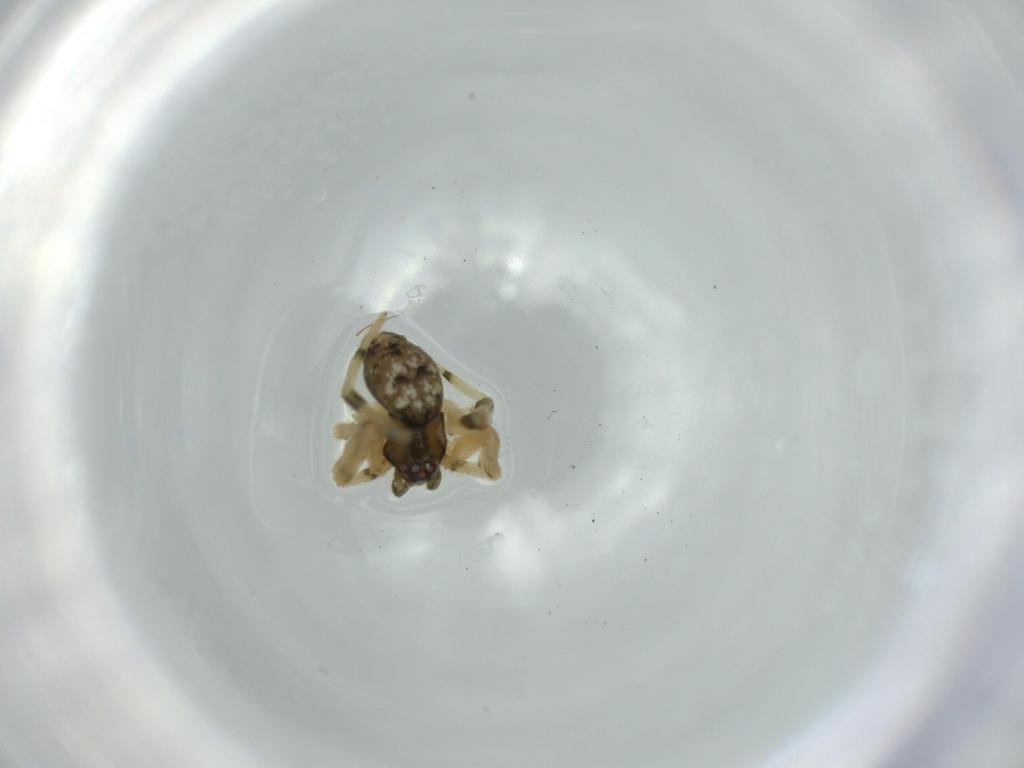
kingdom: Animalia
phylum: Arthropoda
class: Arachnida
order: Araneae
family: Theridiidae
